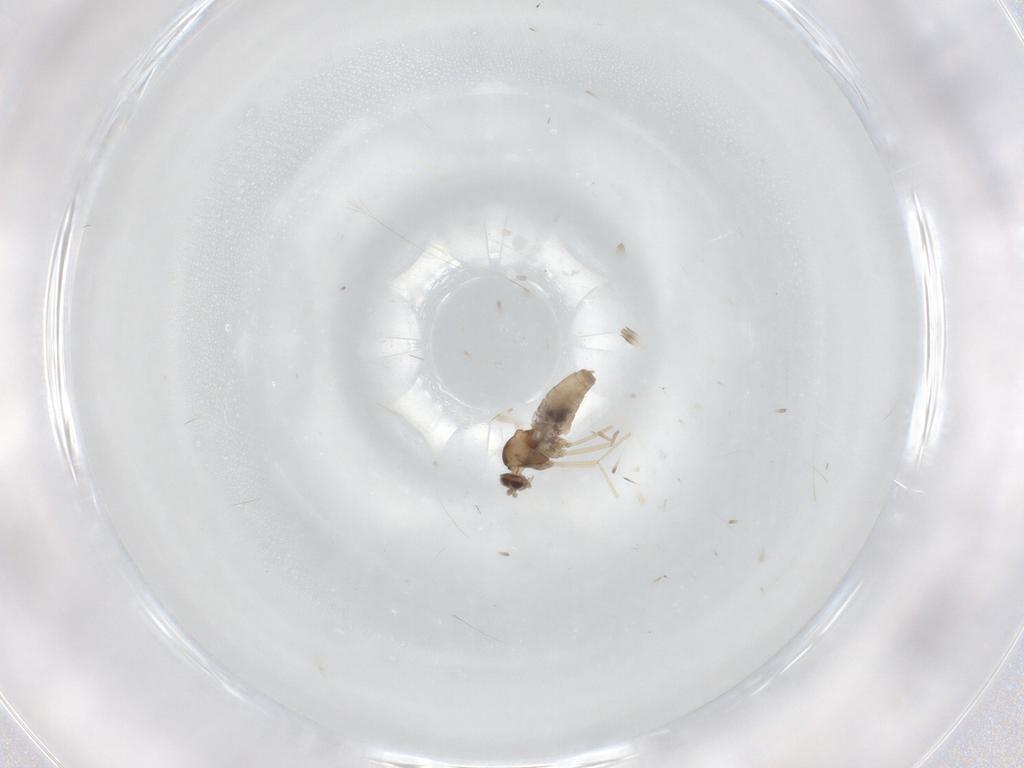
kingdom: Animalia
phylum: Arthropoda
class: Insecta
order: Diptera
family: Cecidomyiidae
